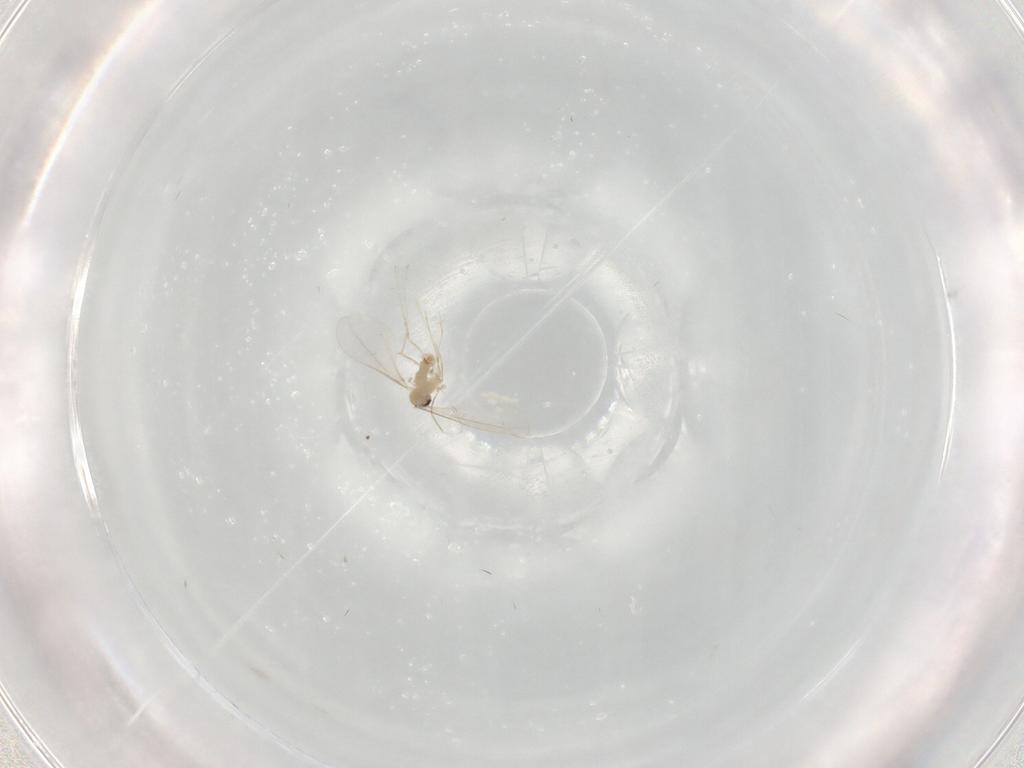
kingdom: Animalia
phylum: Arthropoda
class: Insecta
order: Diptera
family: Cecidomyiidae
